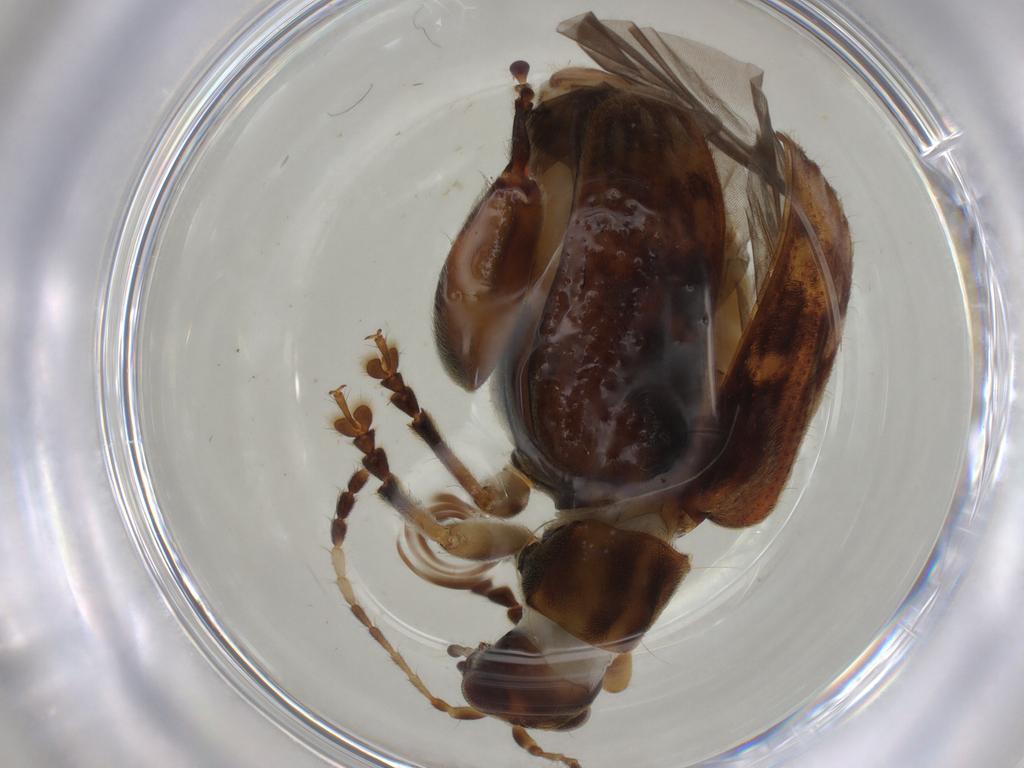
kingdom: Animalia
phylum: Arthropoda
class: Insecta
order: Coleoptera
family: Chrysomelidae
